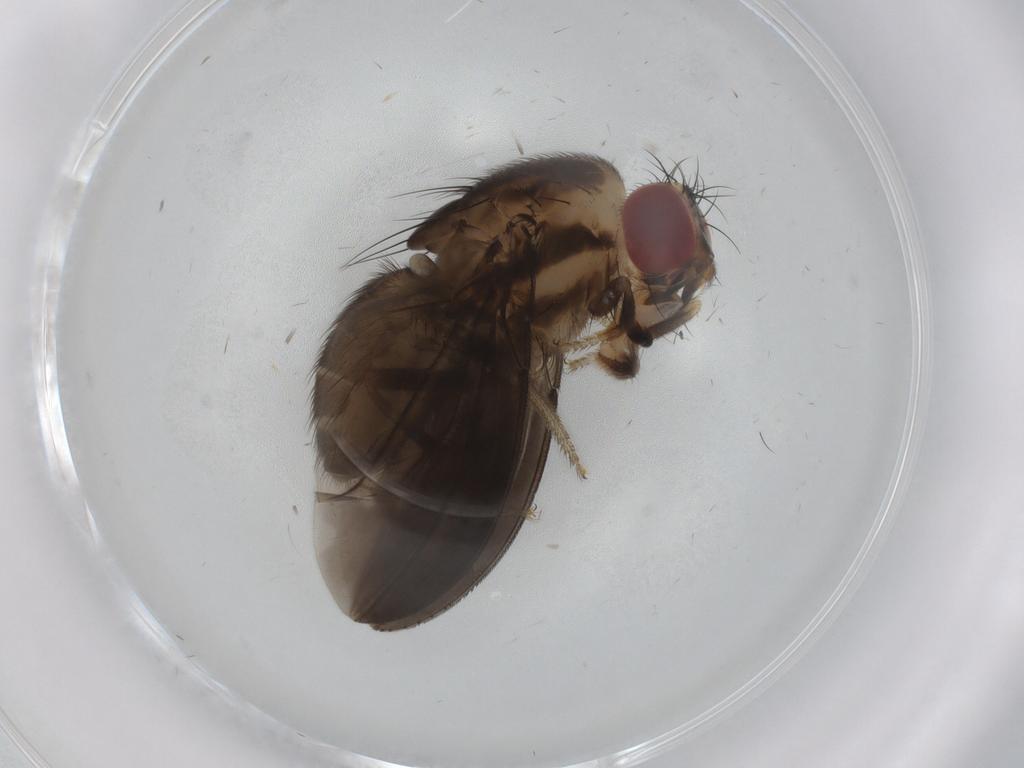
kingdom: Animalia
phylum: Arthropoda
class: Insecta
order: Diptera
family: Cecidomyiidae
